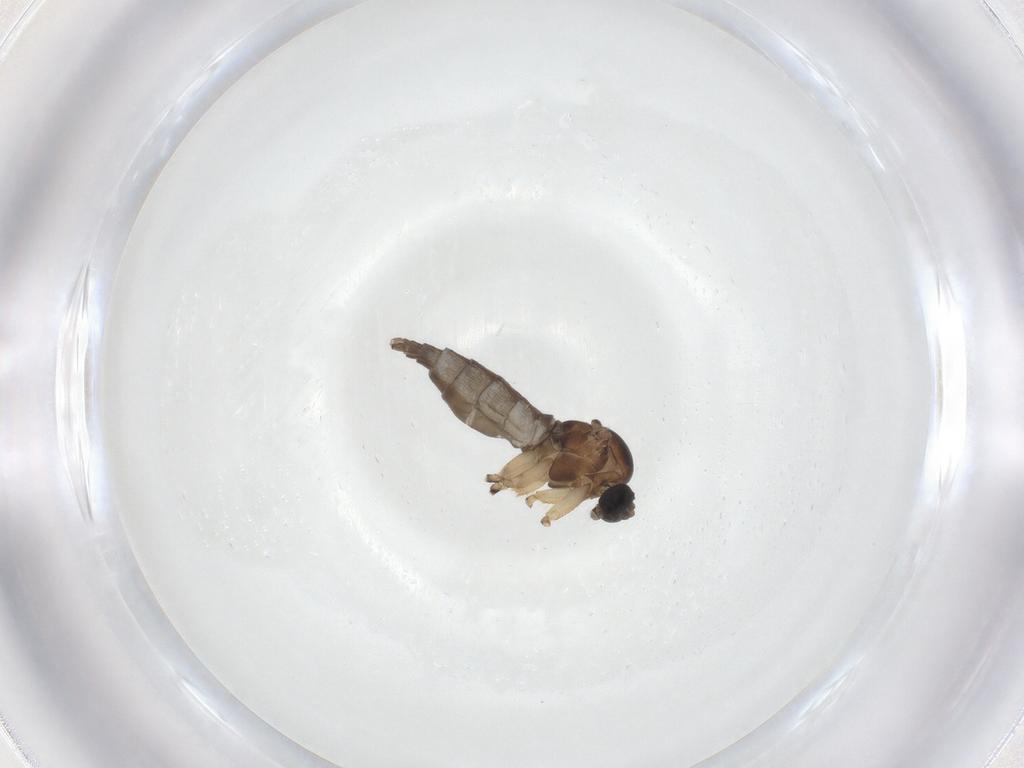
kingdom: Animalia
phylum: Arthropoda
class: Insecta
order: Diptera
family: Sciaridae
